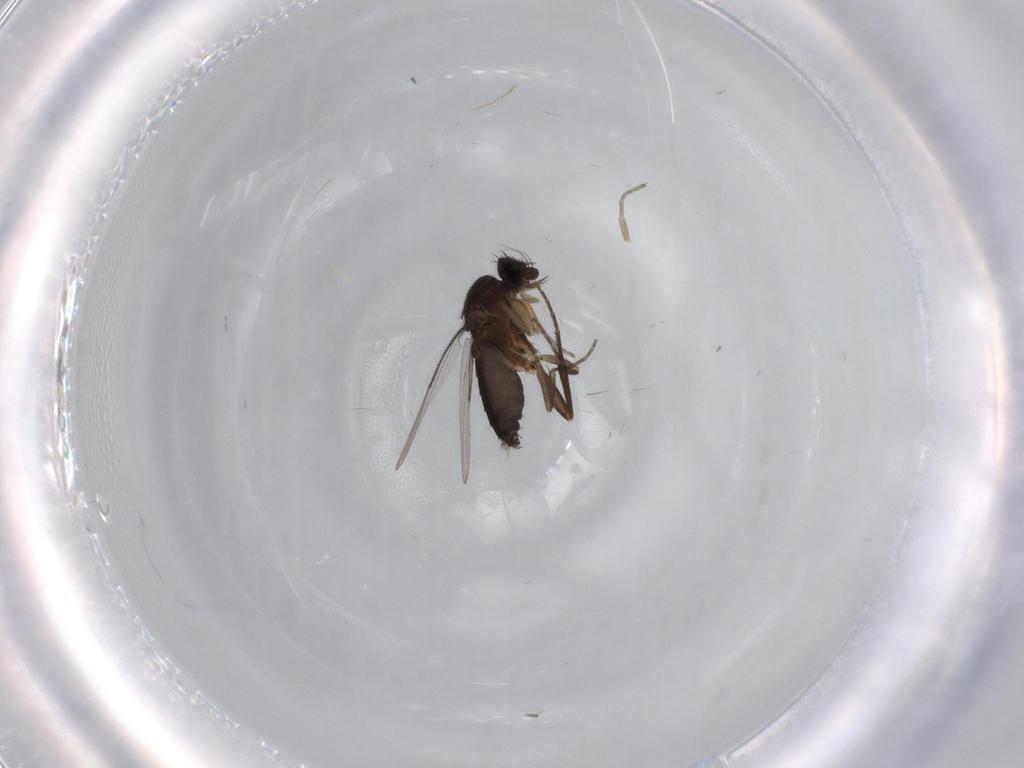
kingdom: Animalia
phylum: Arthropoda
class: Insecta
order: Diptera
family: Phoridae
